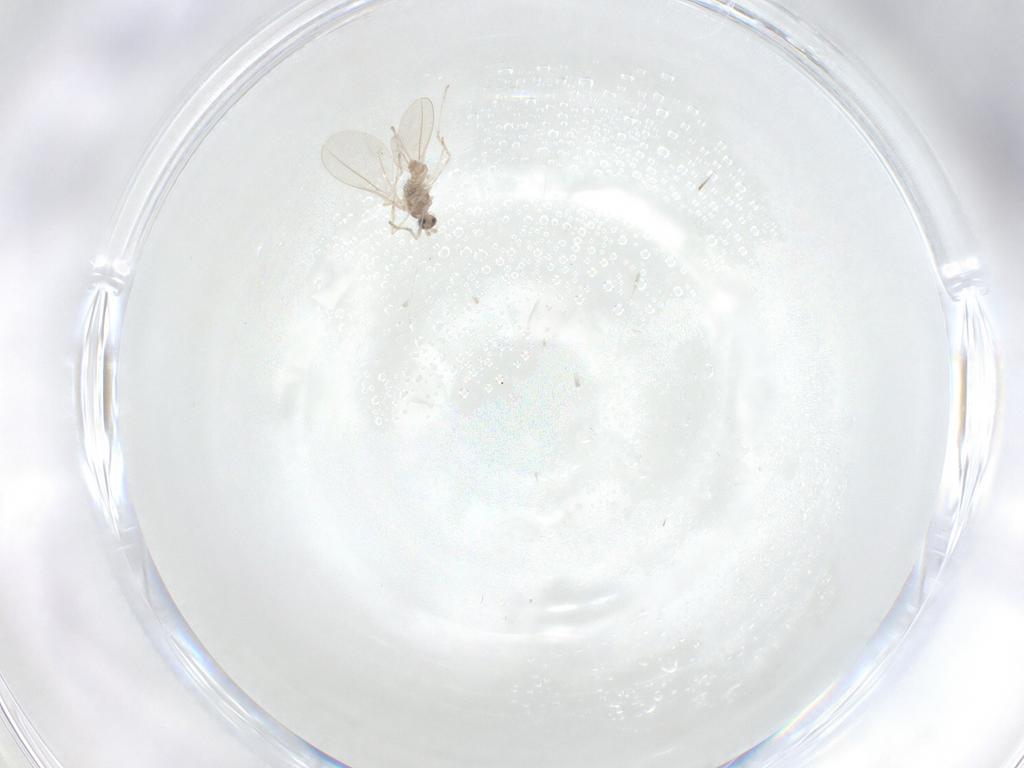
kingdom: Animalia
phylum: Arthropoda
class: Insecta
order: Diptera
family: Cecidomyiidae
